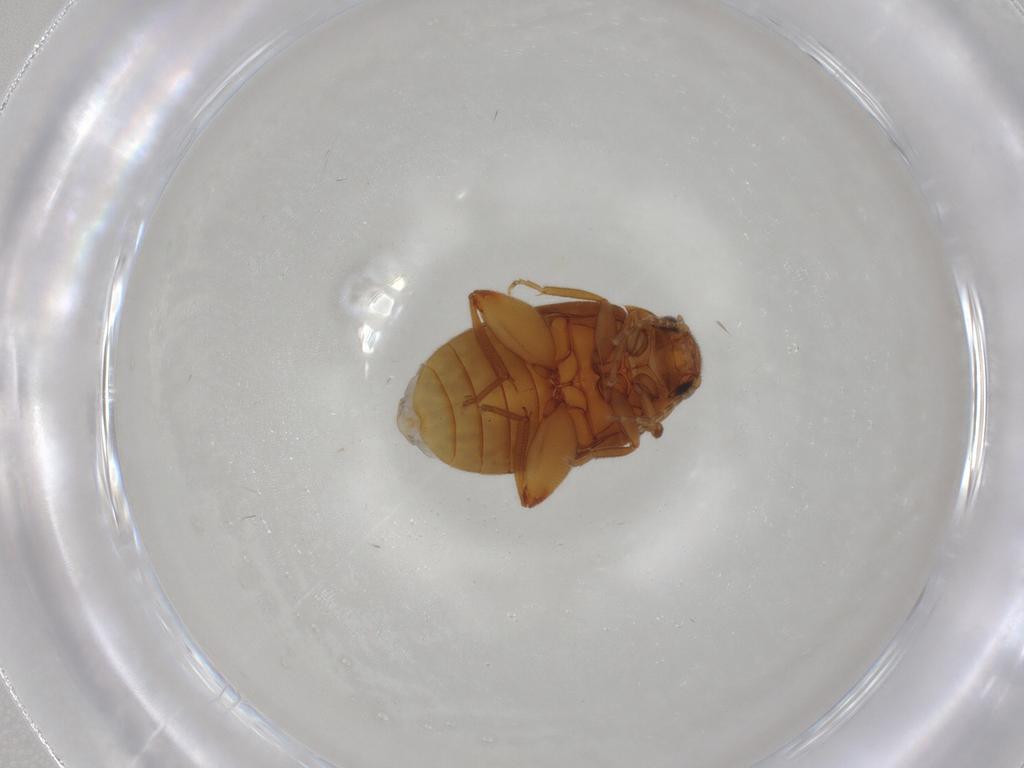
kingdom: Animalia
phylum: Arthropoda
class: Insecta
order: Coleoptera
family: Scirtidae
